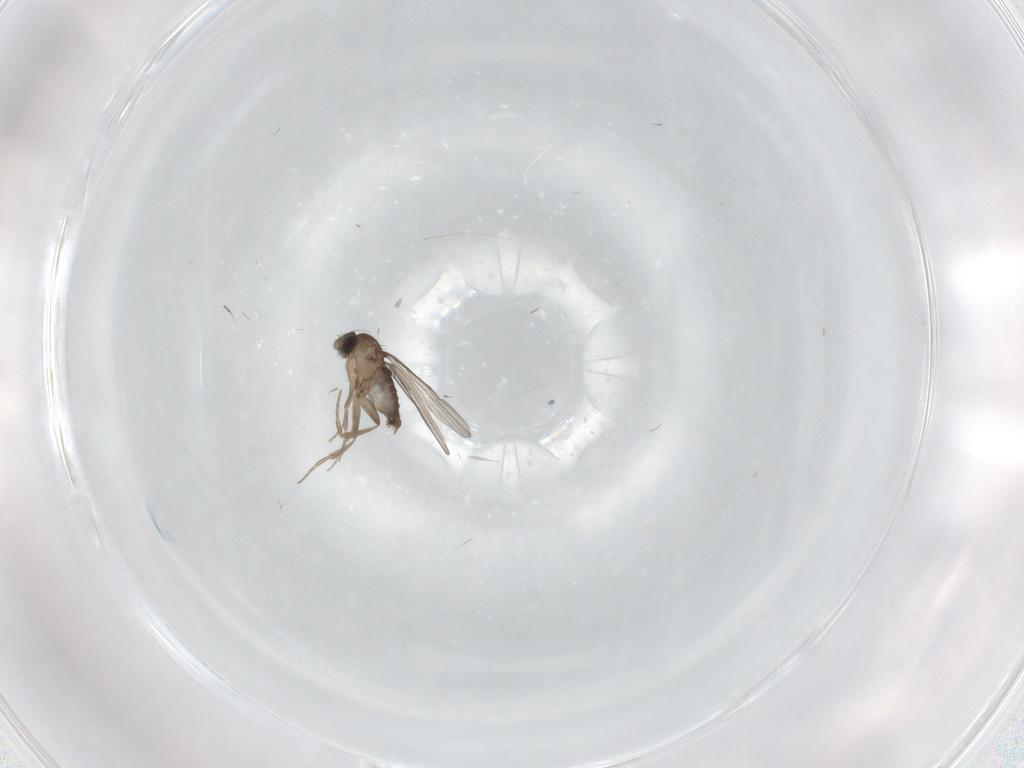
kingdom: Animalia
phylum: Arthropoda
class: Insecta
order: Diptera
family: Phoridae
